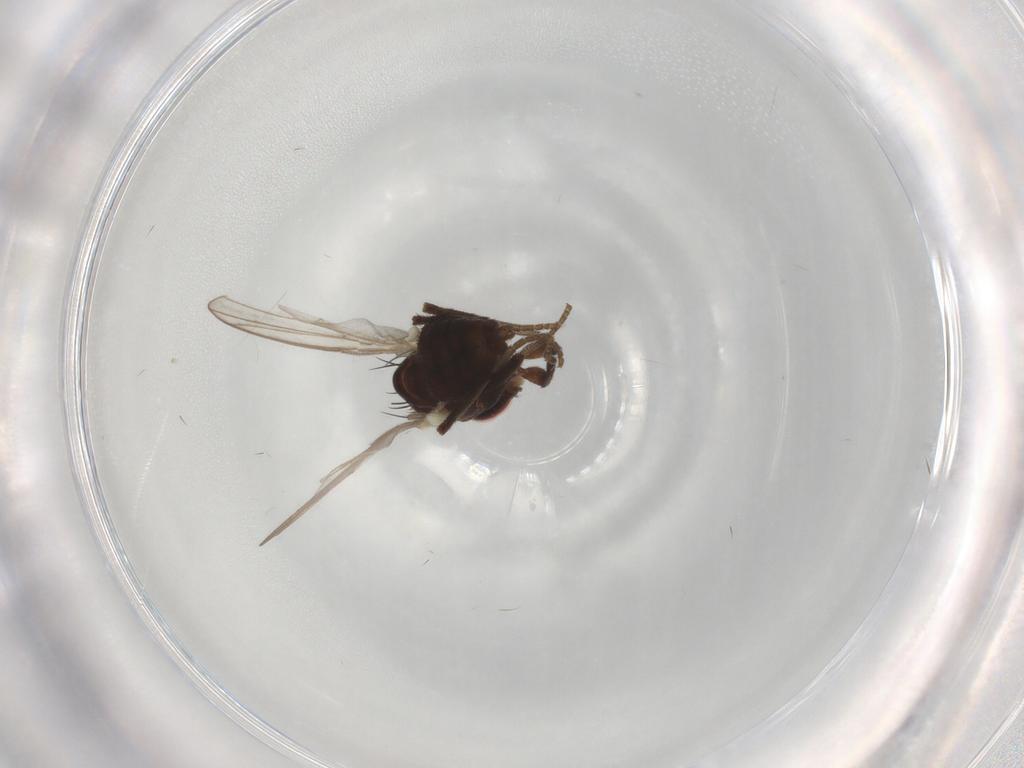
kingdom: Animalia
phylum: Arthropoda
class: Insecta
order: Diptera
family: Agromyzidae
